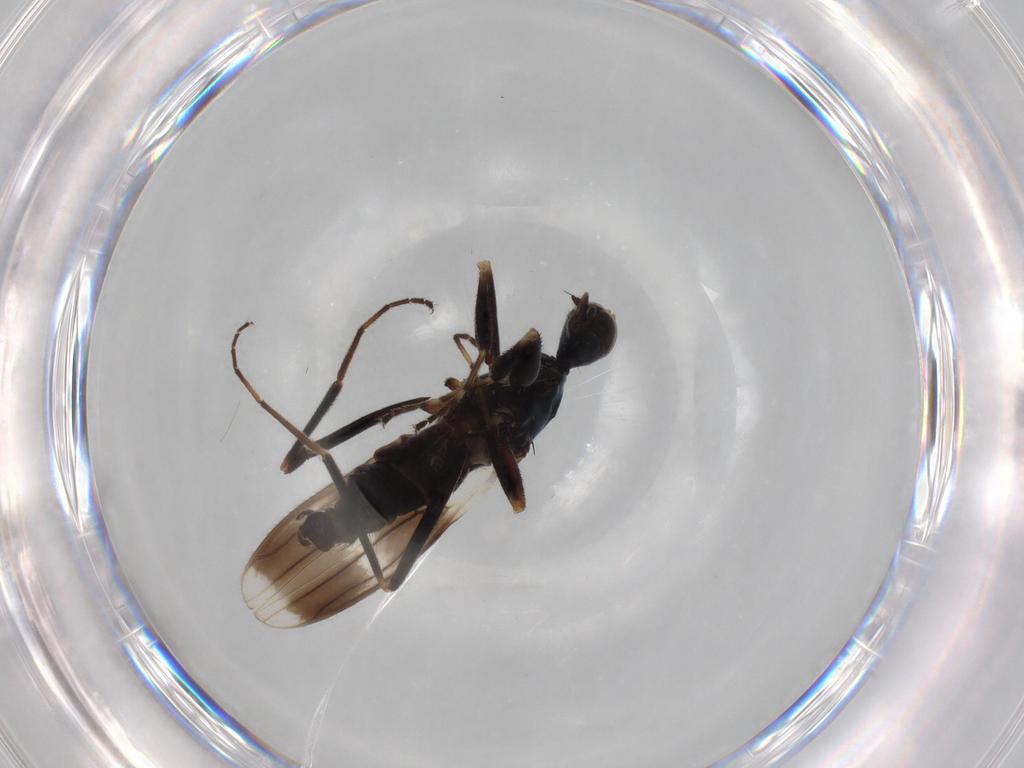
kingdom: Animalia
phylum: Arthropoda
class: Insecta
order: Diptera
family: Hybotidae
